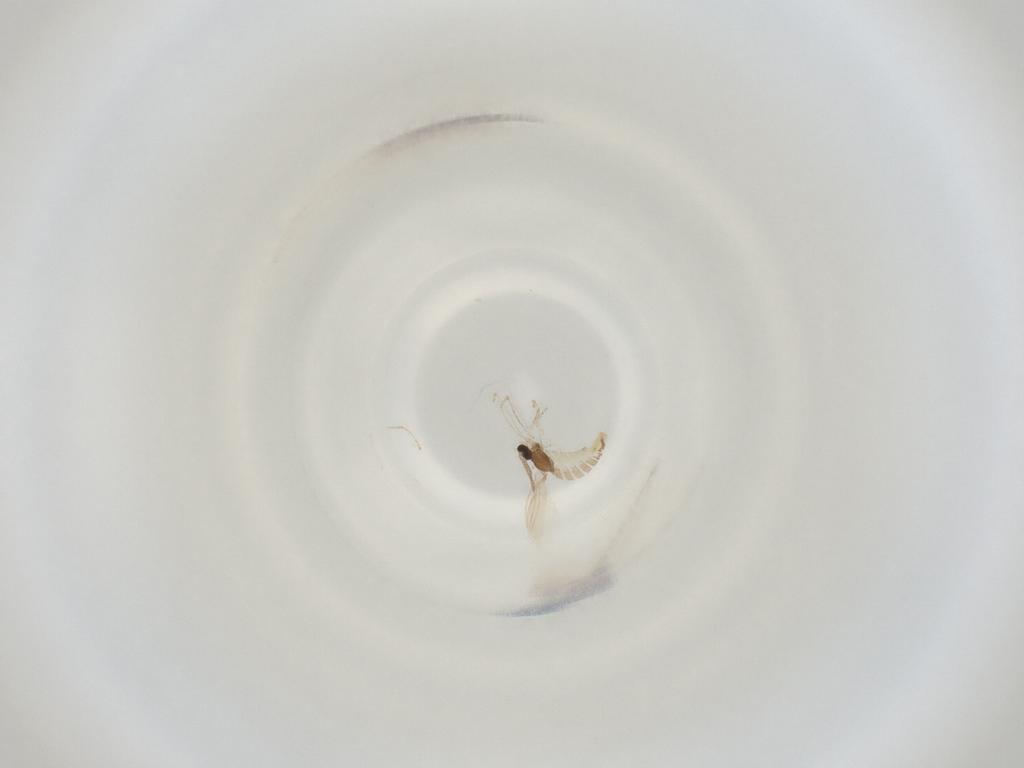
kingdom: Animalia
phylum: Arthropoda
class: Insecta
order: Diptera
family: Cecidomyiidae
